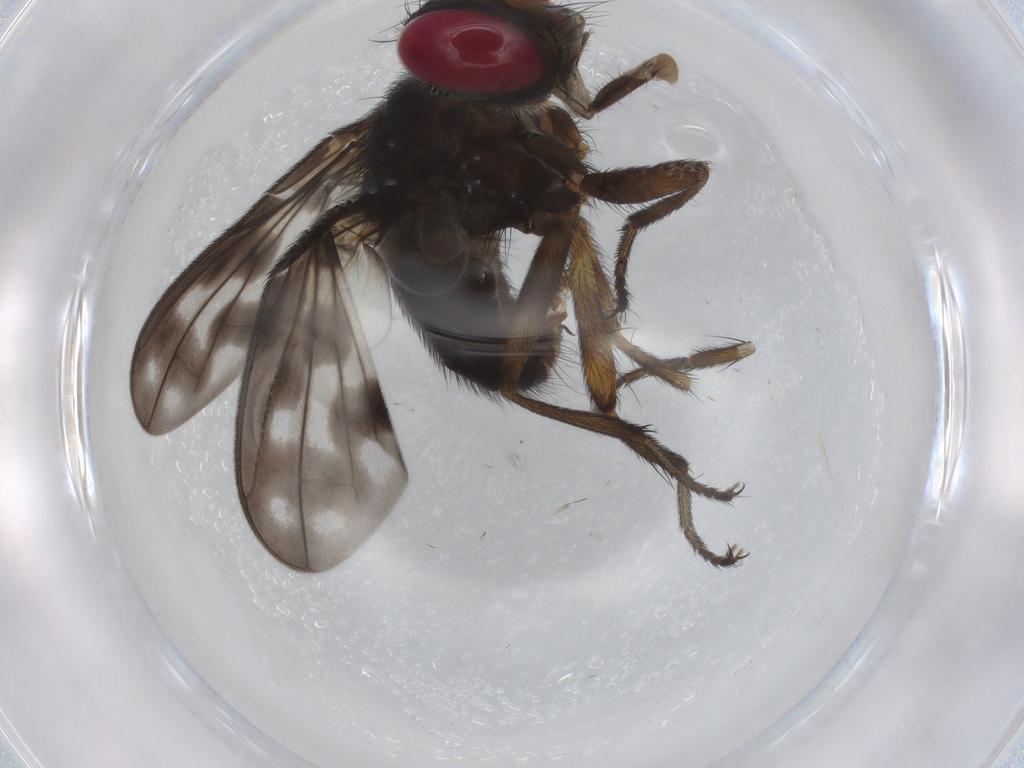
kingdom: Animalia
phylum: Arthropoda
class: Insecta
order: Diptera
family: Tachinidae
